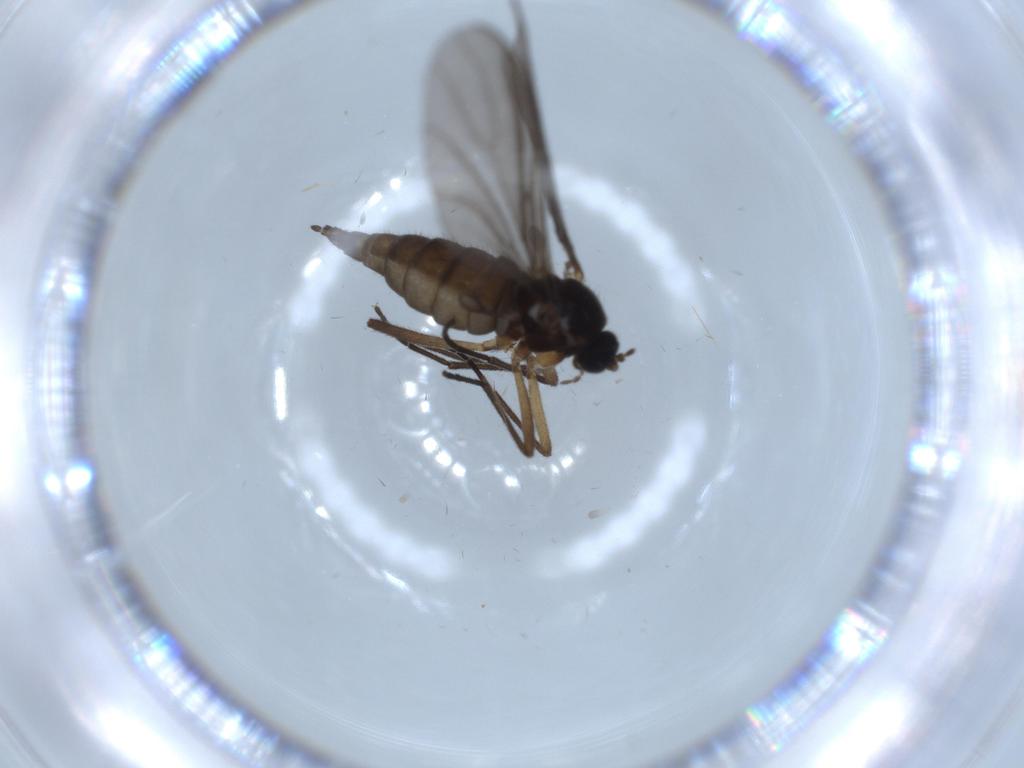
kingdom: Animalia
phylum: Arthropoda
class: Insecta
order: Diptera
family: Sciaridae
